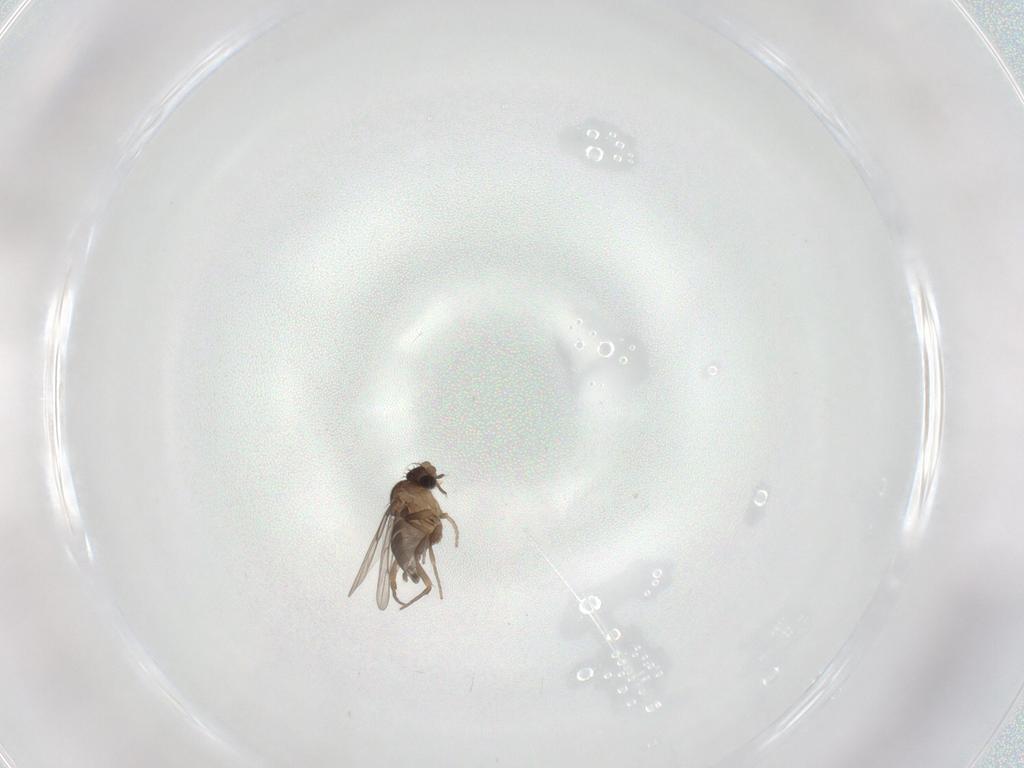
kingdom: Animalia
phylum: Arthropoda
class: Insecta
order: Diptera
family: Phoridae
